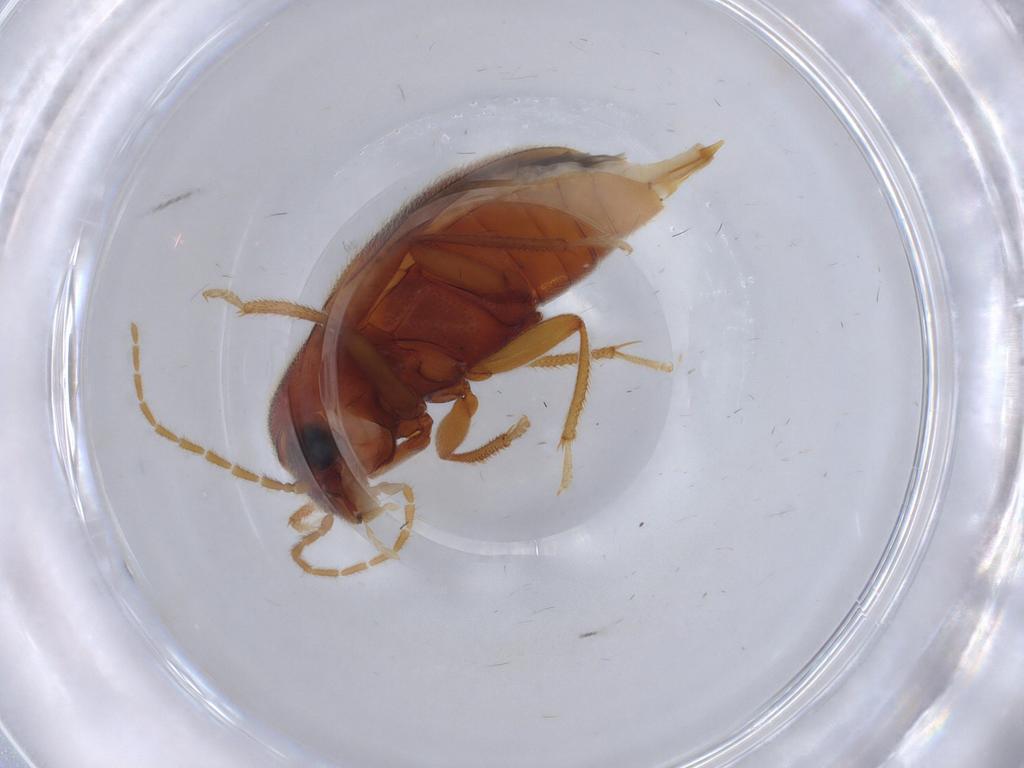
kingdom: Animalia
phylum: Arthropoda
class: Insecta
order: Coleoptera
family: Ptilodactylidae
